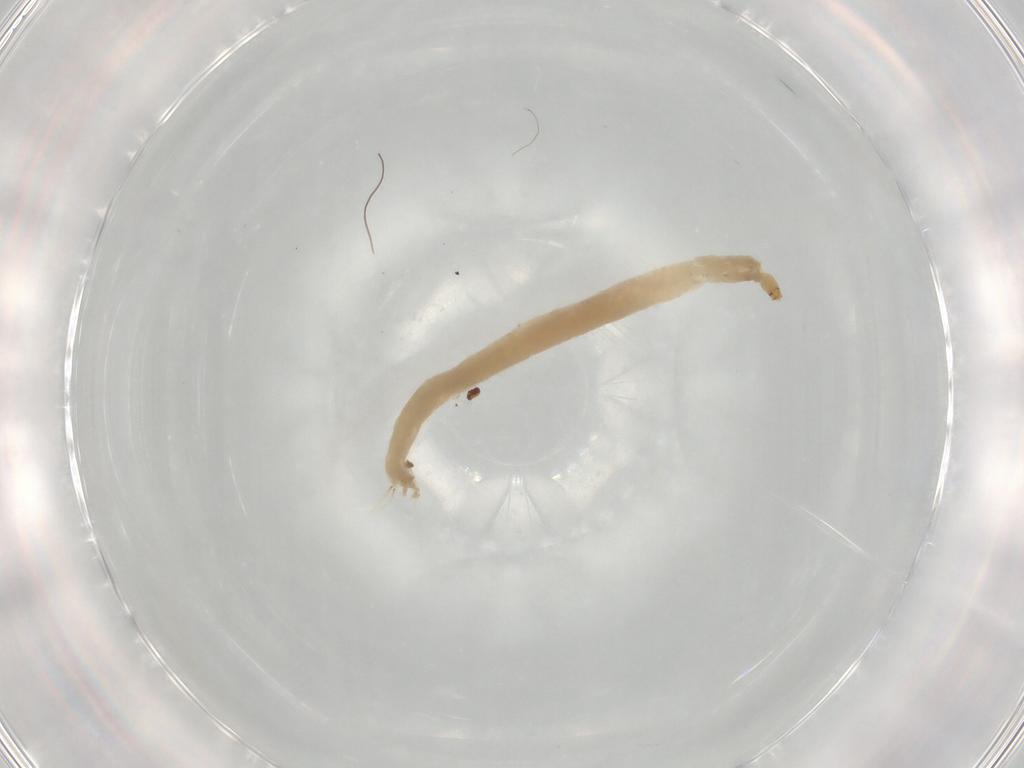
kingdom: Animalia
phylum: Arthropoda
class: Insecta
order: Diptera
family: Chironomidae
